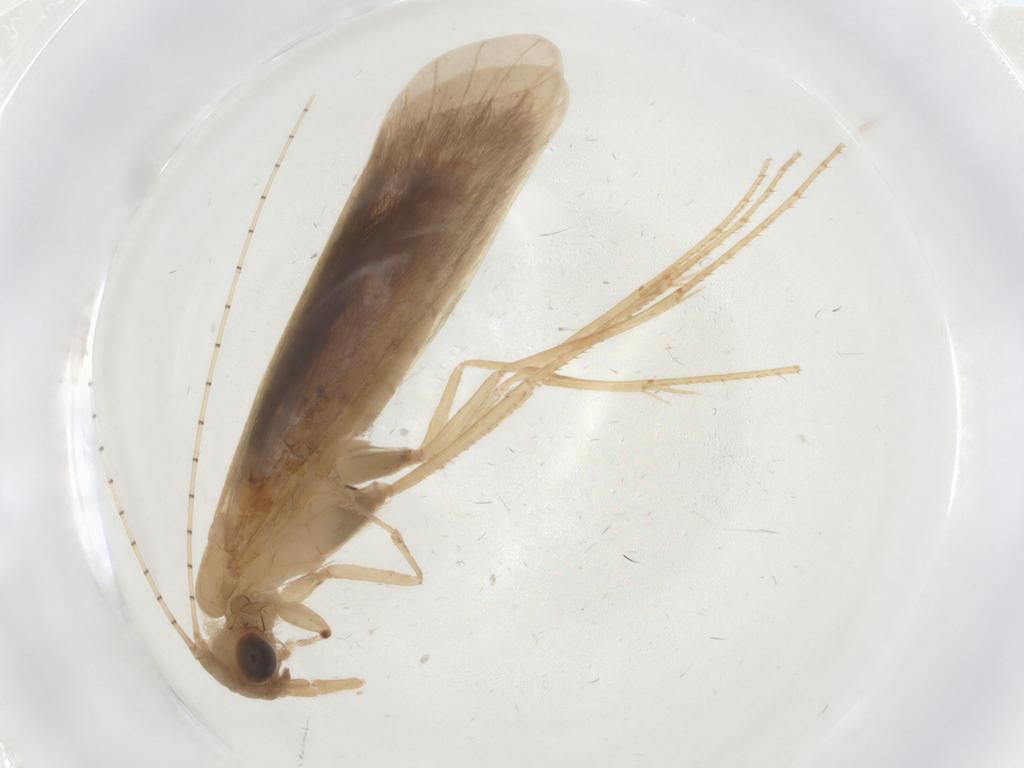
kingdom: Animalia
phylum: Arthropoda
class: Insecta
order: Trichoptera
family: Leptoceridae
